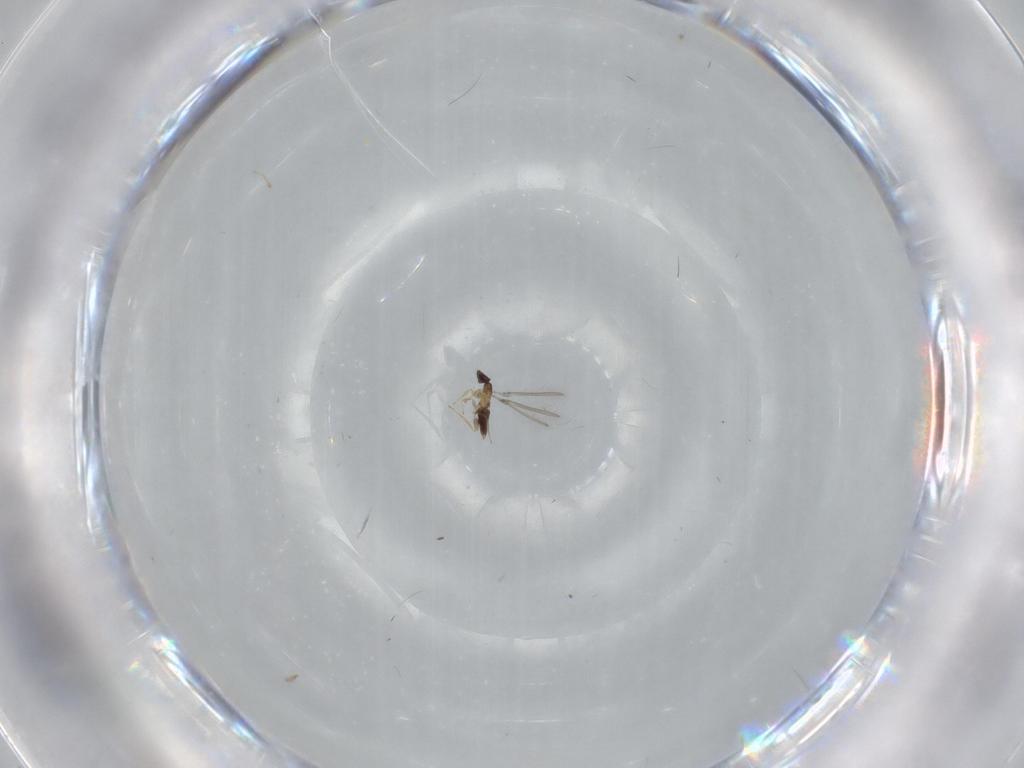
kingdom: Animalia
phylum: Arthropoda
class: Insecta
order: Hymenoptera
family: Mymaridae
